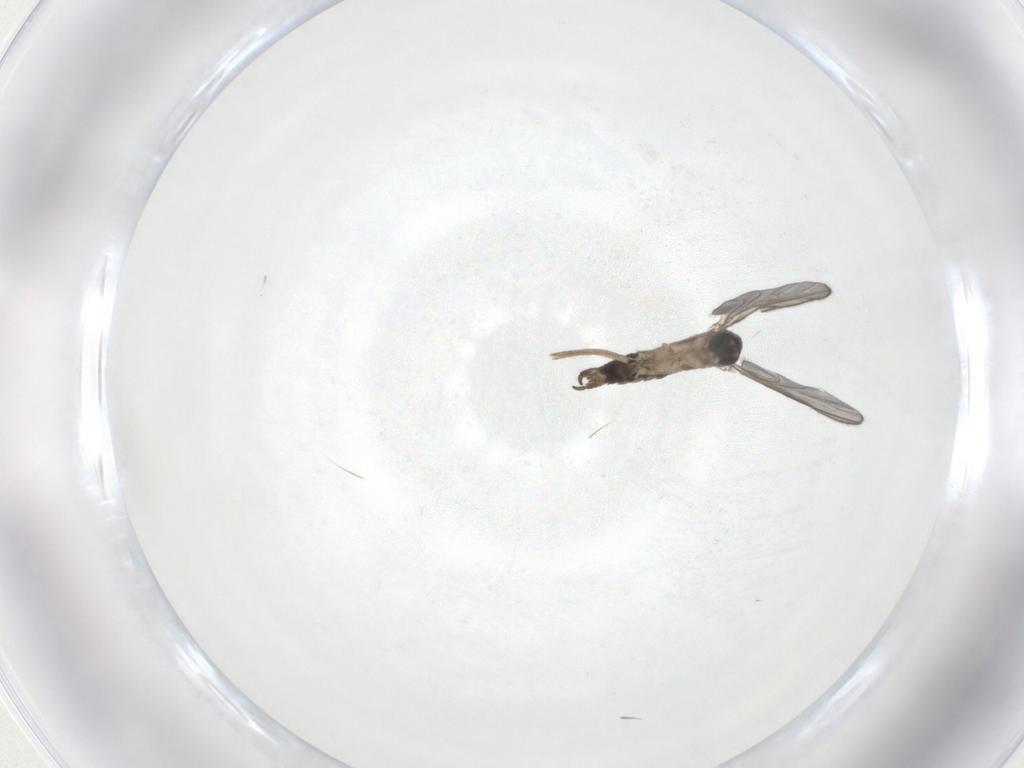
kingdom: Animalia
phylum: Arthropoda
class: Insecta
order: Diptera
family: Sciaridae
